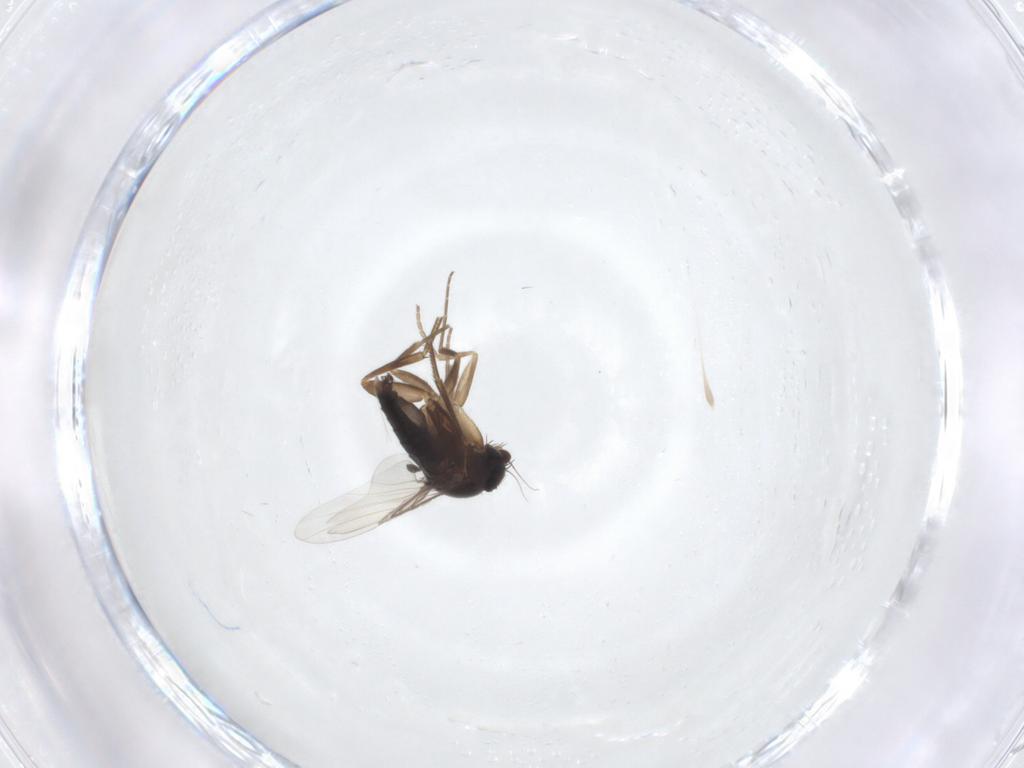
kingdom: Animalia
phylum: Arthropoda
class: Insecta
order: Diptera
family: Phoridae
